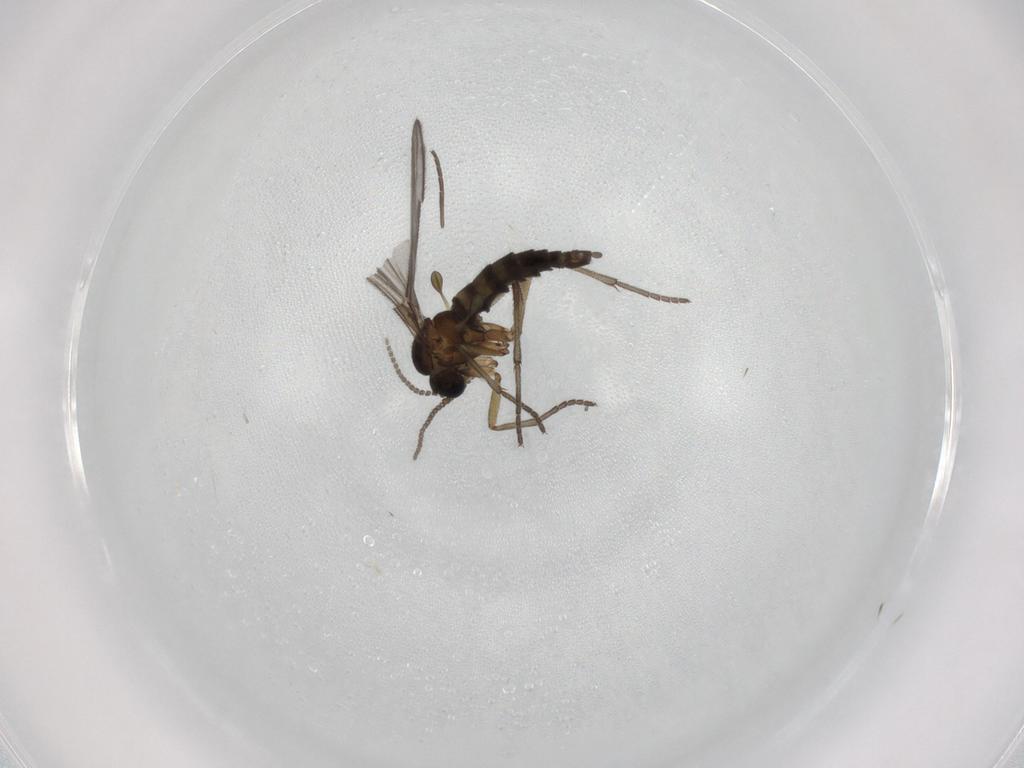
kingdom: Animalia
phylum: Arthropoda
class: Insecta
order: Diptera
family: Sciaridae
